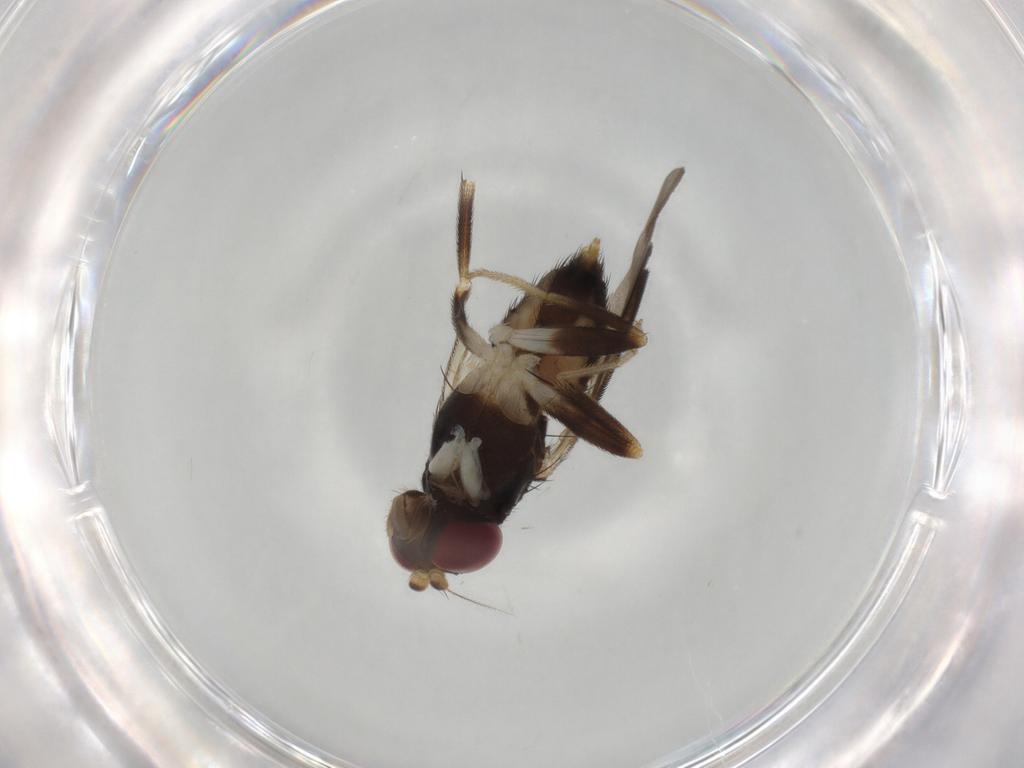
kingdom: Animalia
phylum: Arthropoda
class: Insecta
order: Diptera
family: Clusiidae
